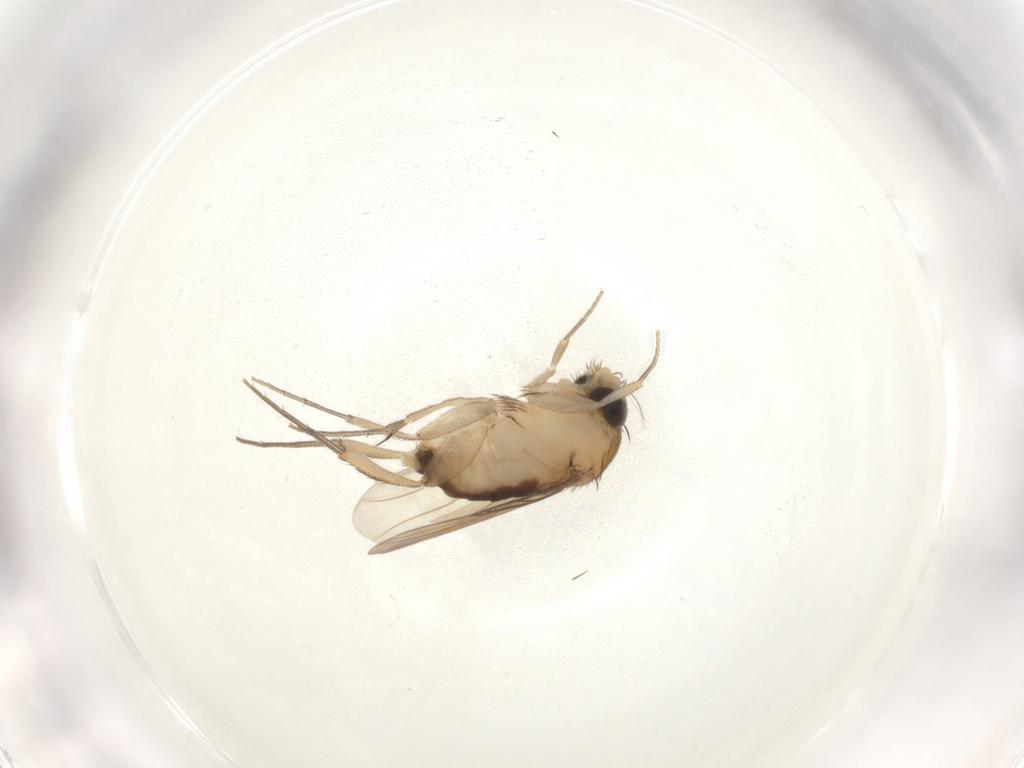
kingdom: Animalia
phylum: Arthropoda
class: Insecta
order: Diptera
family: Phoridae
